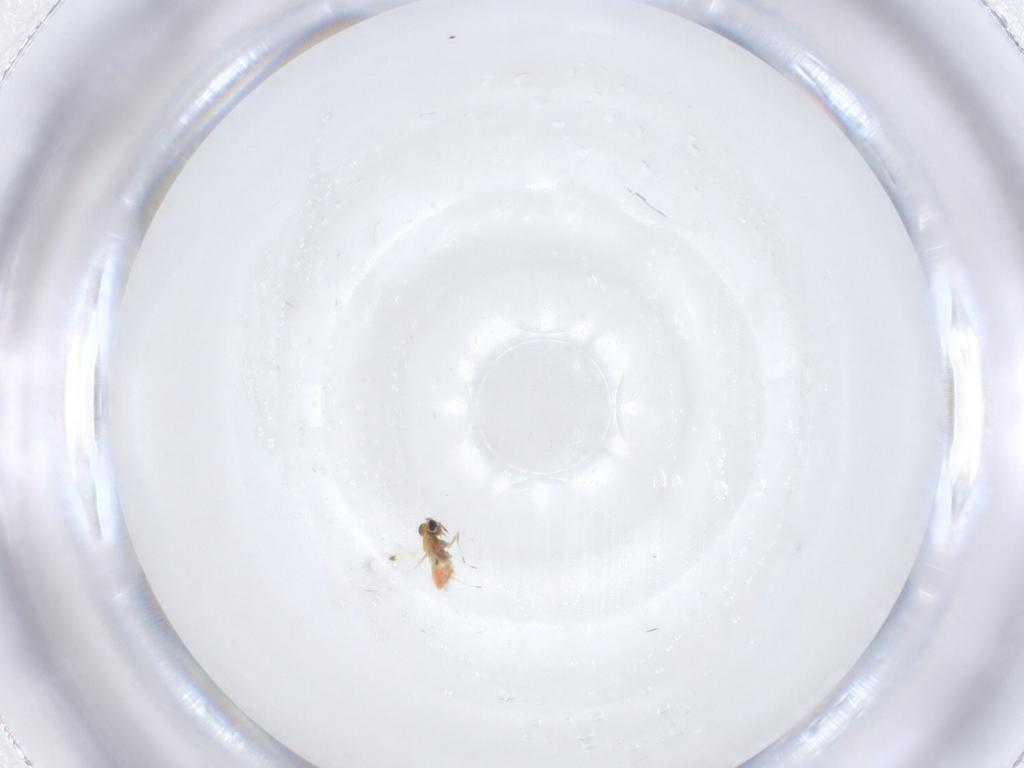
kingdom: Animalia
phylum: Arthropoda
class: Insecta
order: Hymenoptera
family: Trichogrammatidae
